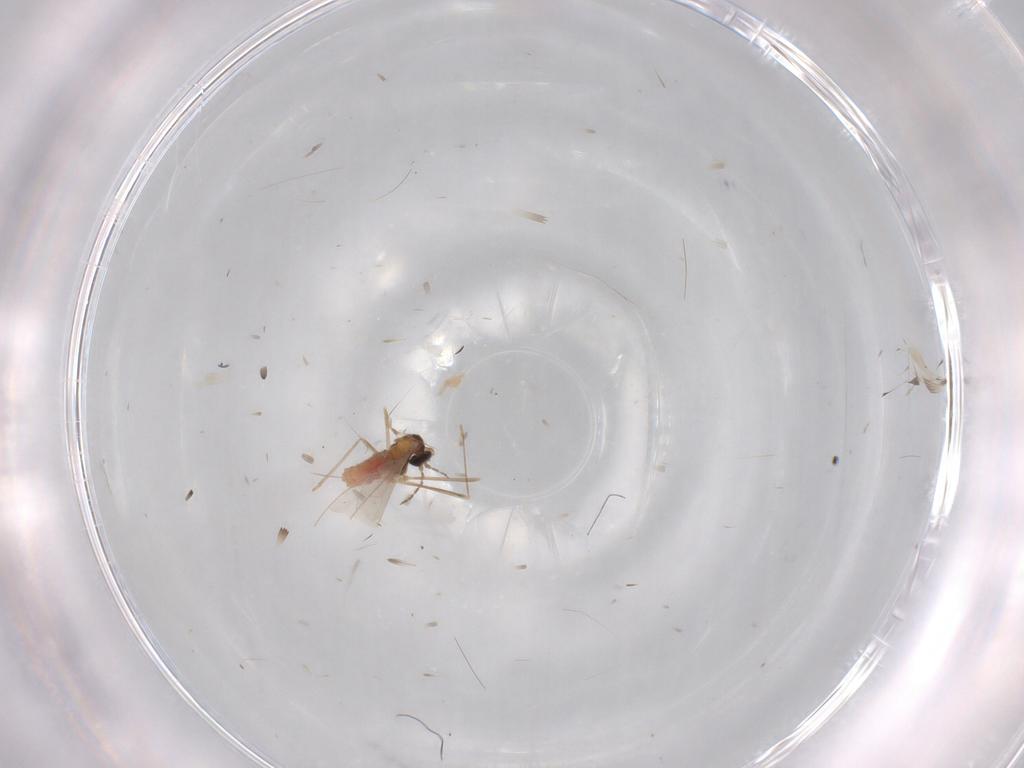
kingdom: Animalia
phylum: Arthropoda
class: Insecta
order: Diptera
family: Cecidomyiidae
